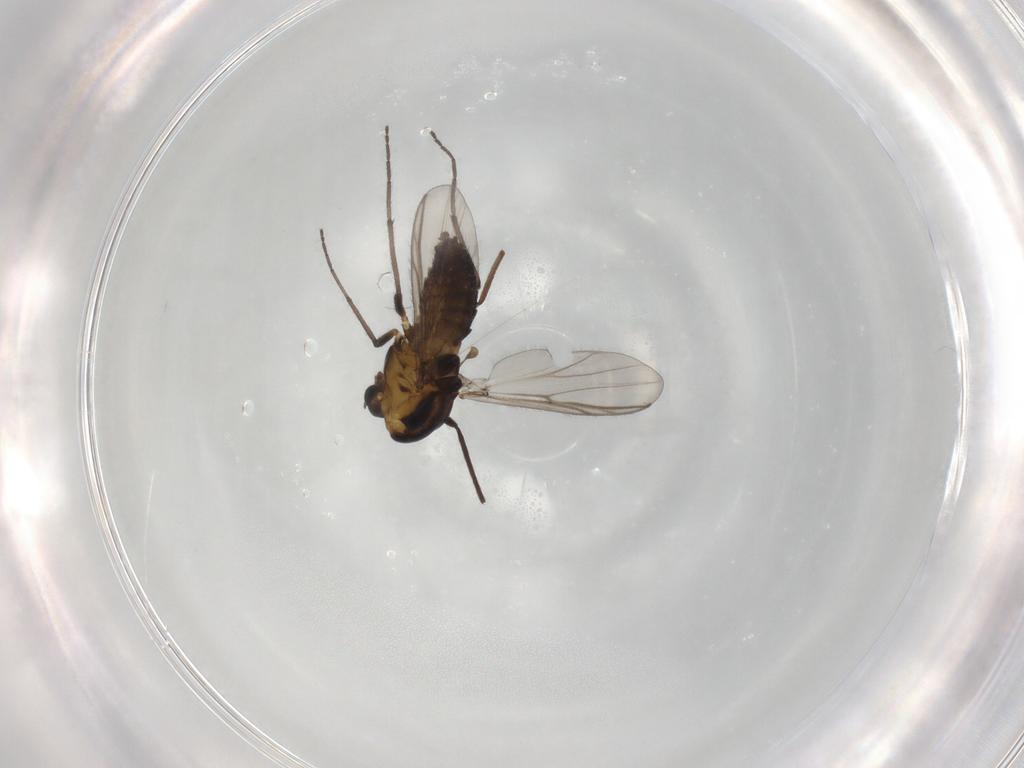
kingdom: Animalia
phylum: Arthropoda
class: Insecta
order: Diptera
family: Chironomidae
